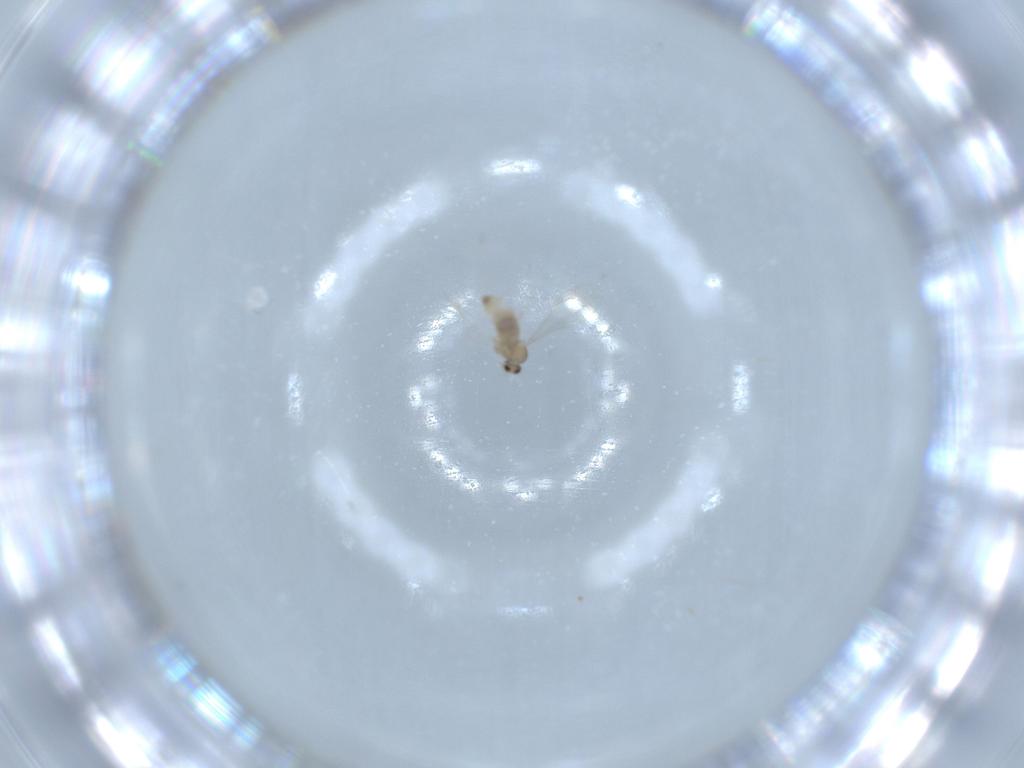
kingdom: Animalia
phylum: Arthropoda
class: Insecta
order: Diptera
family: Cecidomyiidae
